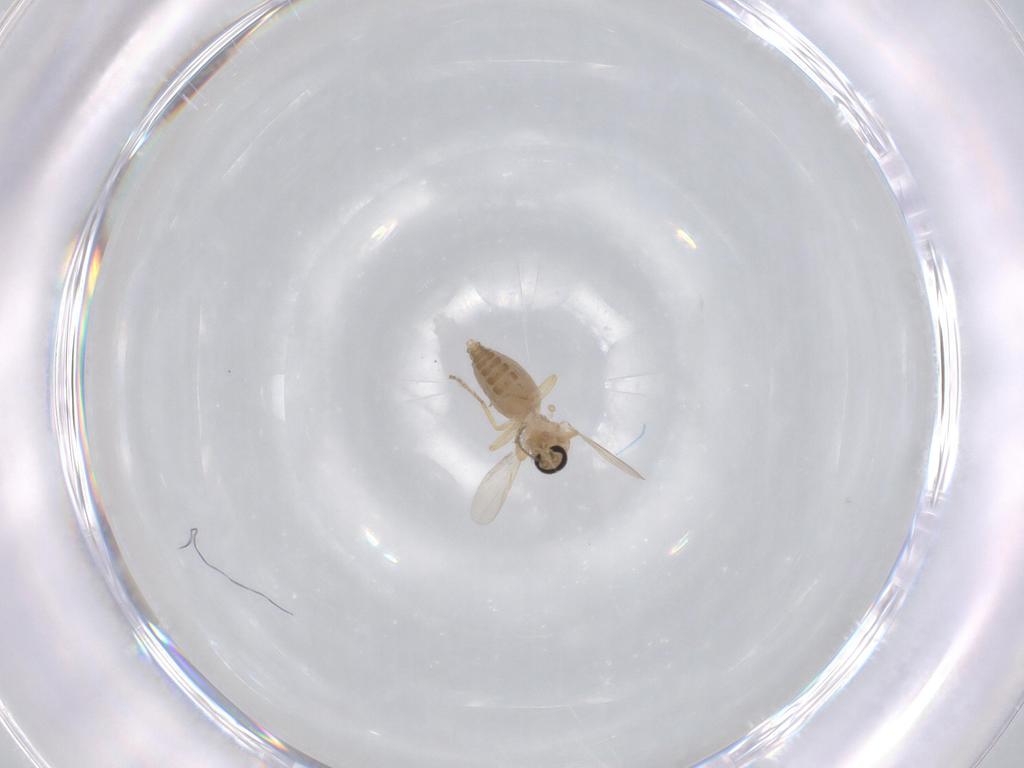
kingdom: Animalia
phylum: Arthropoda
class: Insecta
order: Diptera
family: Ceratopogonidae
